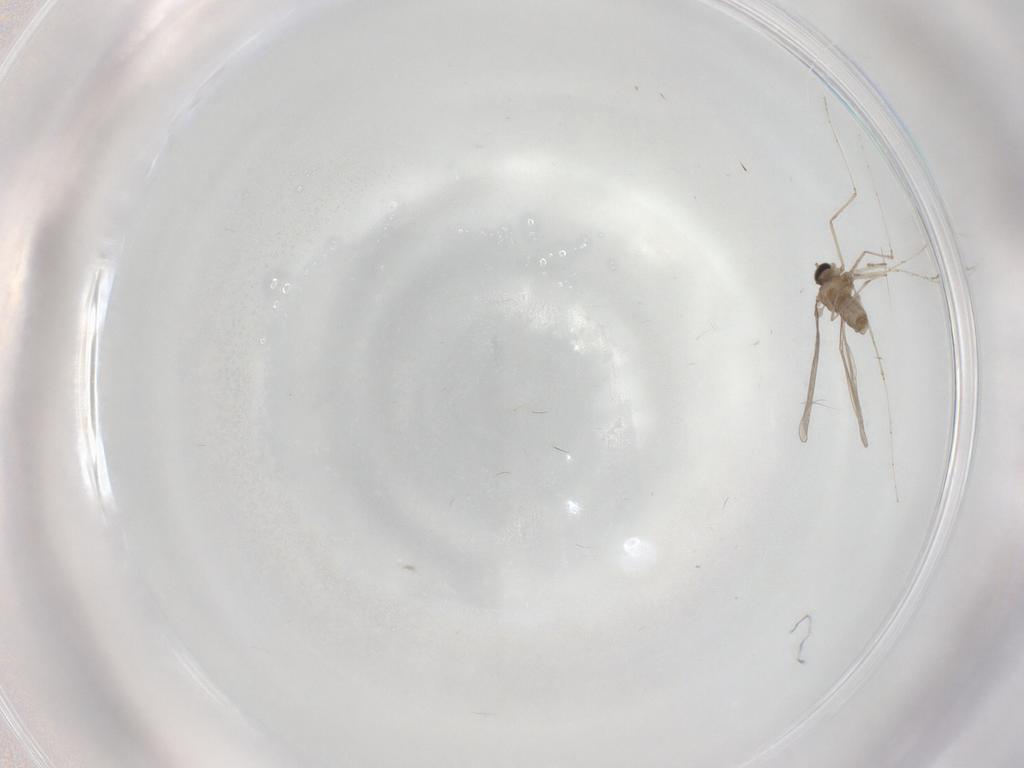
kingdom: Animalia
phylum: Arthropoda
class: Insecta
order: Diptera
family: Cecidomyiidae
